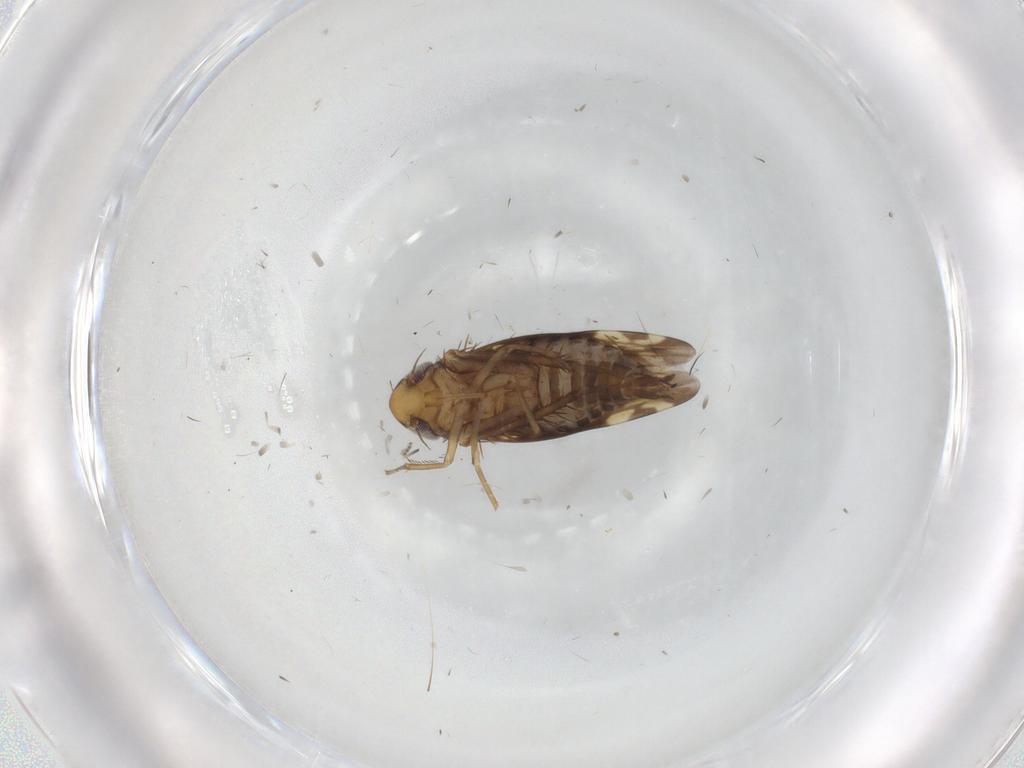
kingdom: Animalia
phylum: Arthropoda
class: Insecta
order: Hemiptera
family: Cicadellidae
